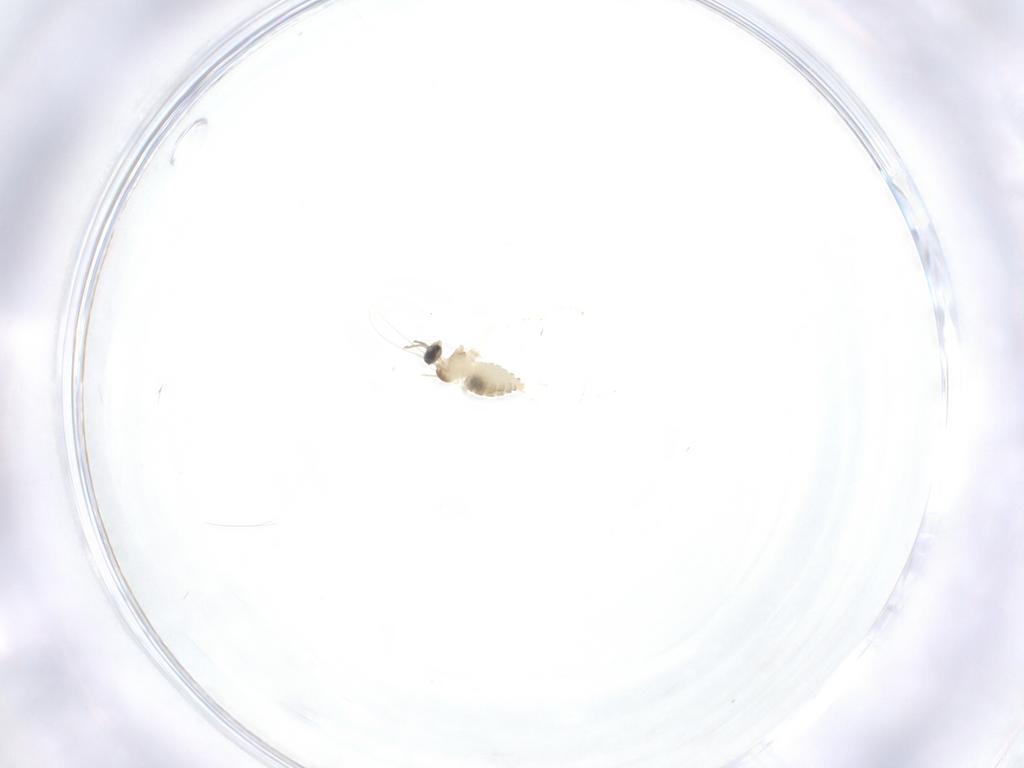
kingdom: Animalia
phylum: Arthropoda
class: Insecta
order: Diptera
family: Cecidomyiidae
